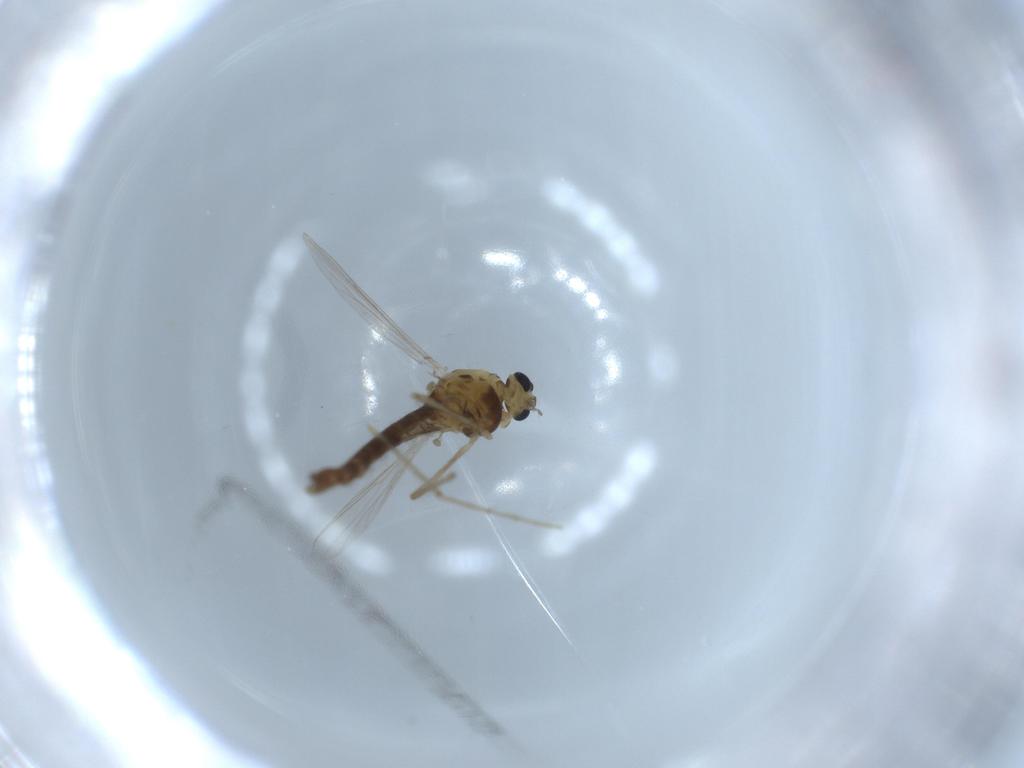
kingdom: Animalia
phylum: Arthropoda
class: Insecta
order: Diptera
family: Chironomidae
